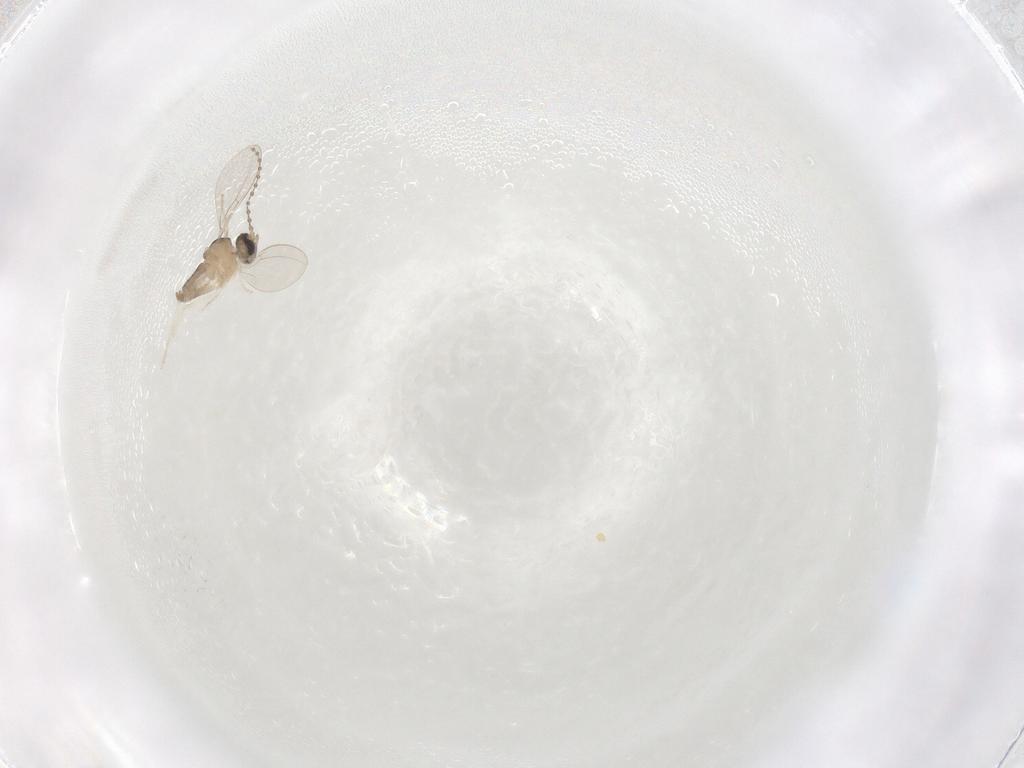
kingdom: Animalia
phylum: Arthropoda
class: Insecta
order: Diptera
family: Cecidomyiidae
